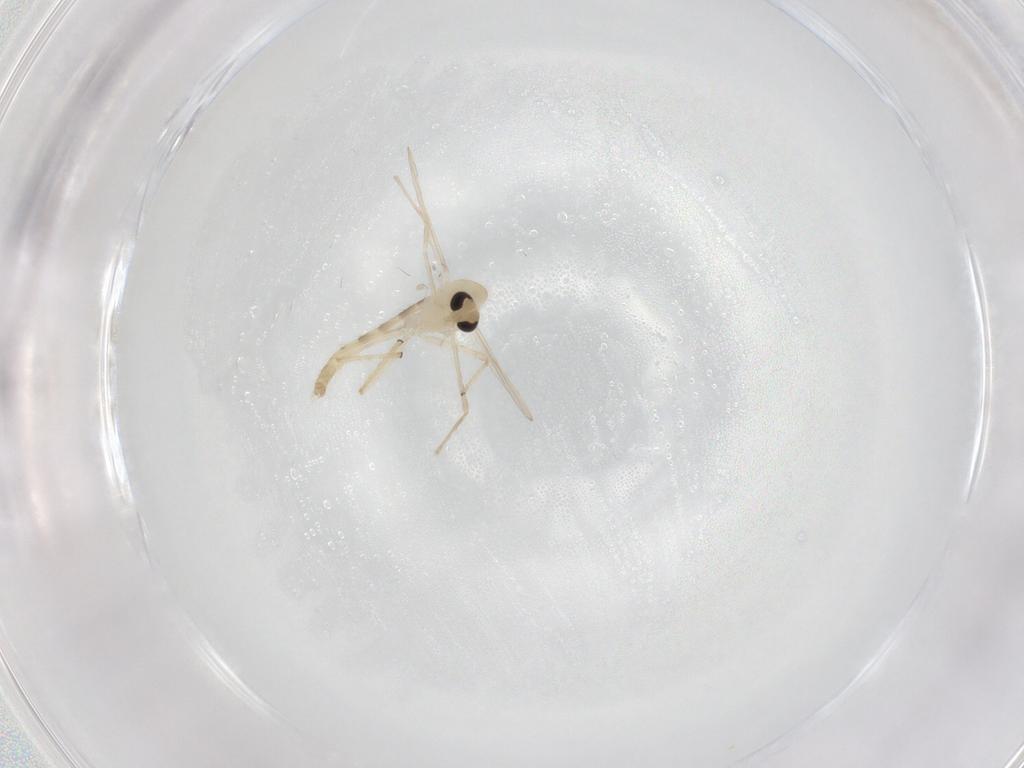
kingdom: Animalia
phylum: Arthropoda
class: Insecta
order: Diptera
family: Chironomidae
